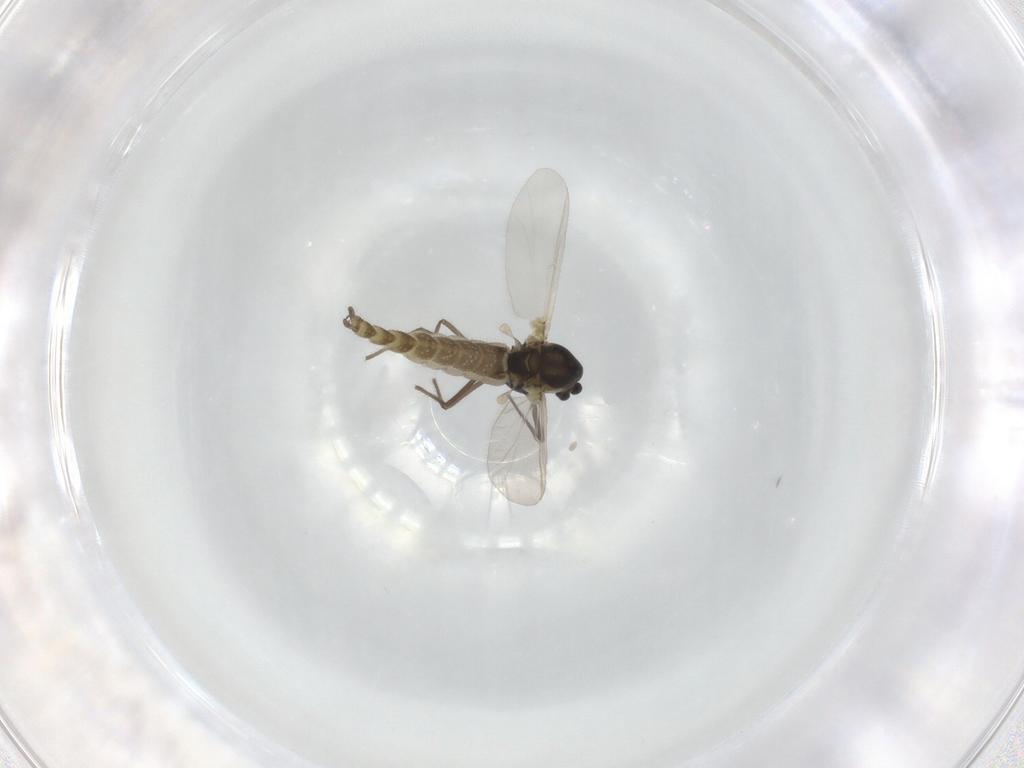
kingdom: Animalia
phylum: Arthropoda
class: Insecta
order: Diptera
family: Chironomidae
